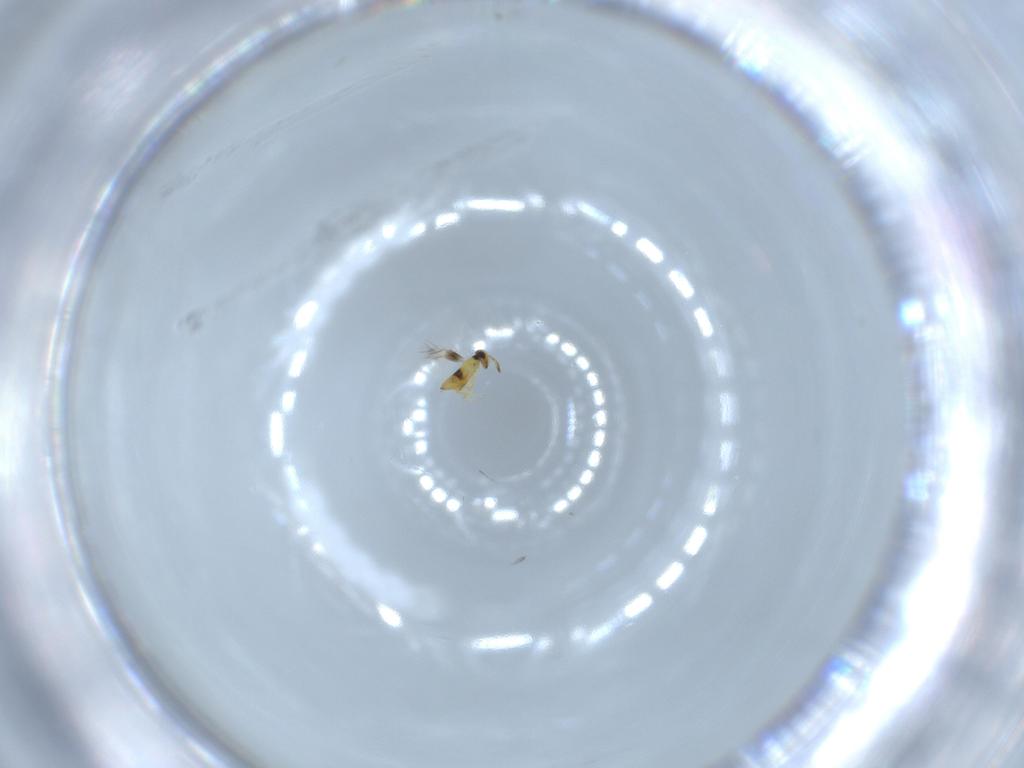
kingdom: Animalia
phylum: Arthropoda
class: Insecta
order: Hymenoptera
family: Signiphoridae
